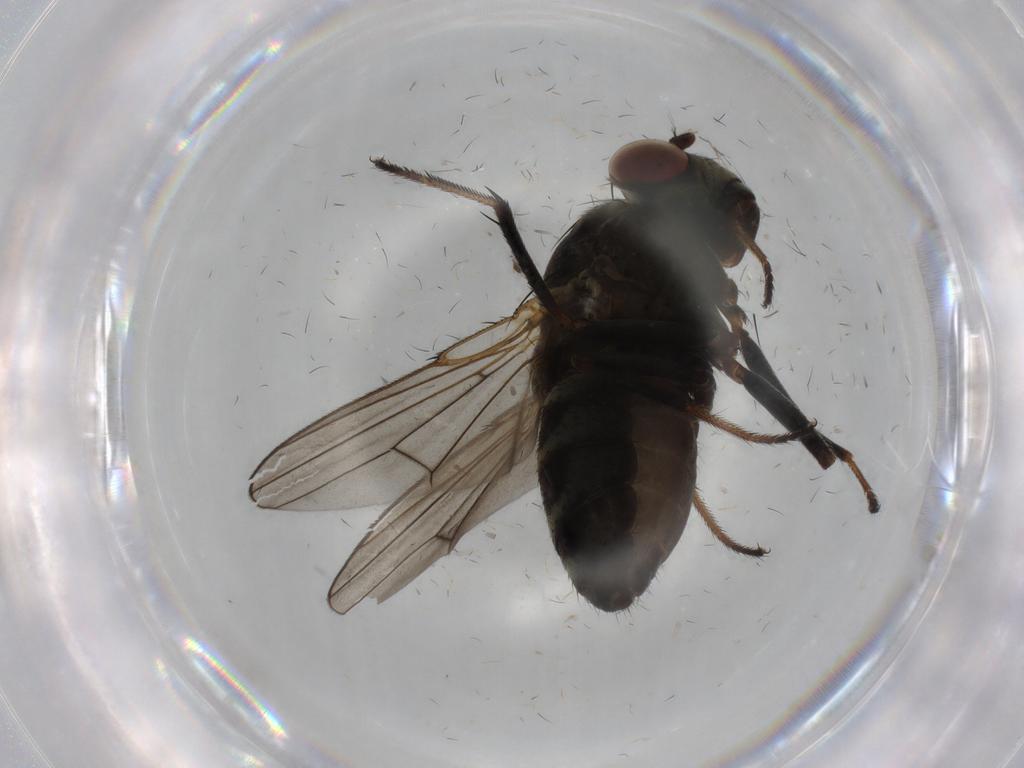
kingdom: Animalia
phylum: Arthropoda
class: Insecta
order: Diptera
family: Ephydridae
